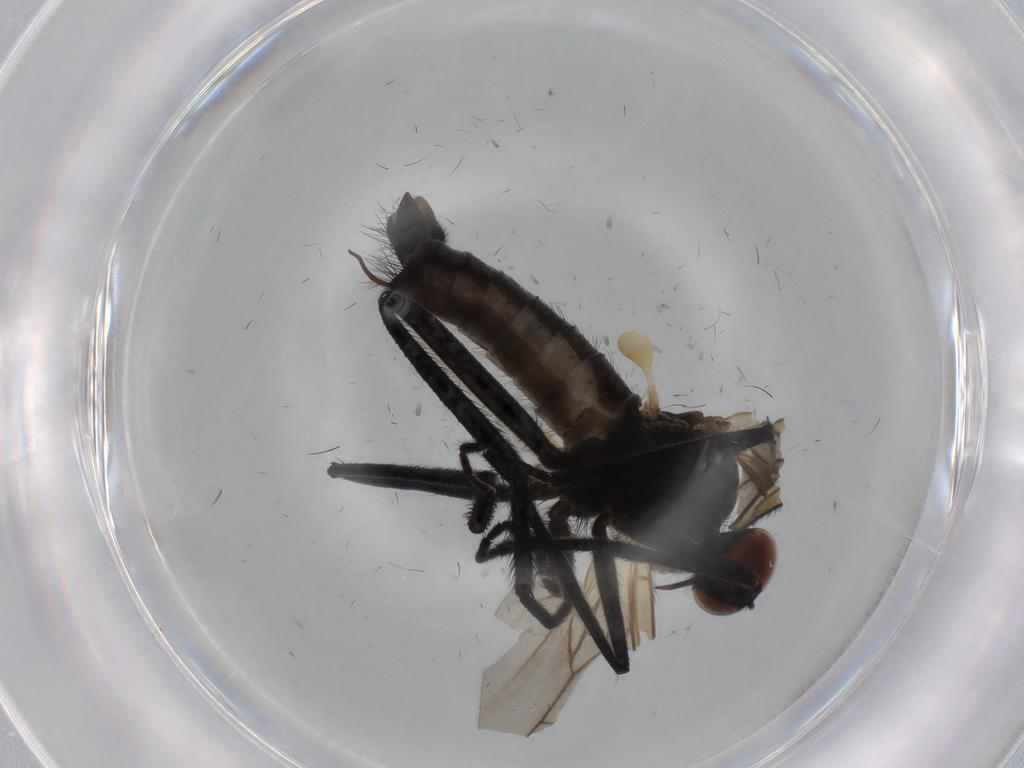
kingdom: Animalia
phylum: Arthropoda
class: Insecta
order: Diptera
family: Empididae
